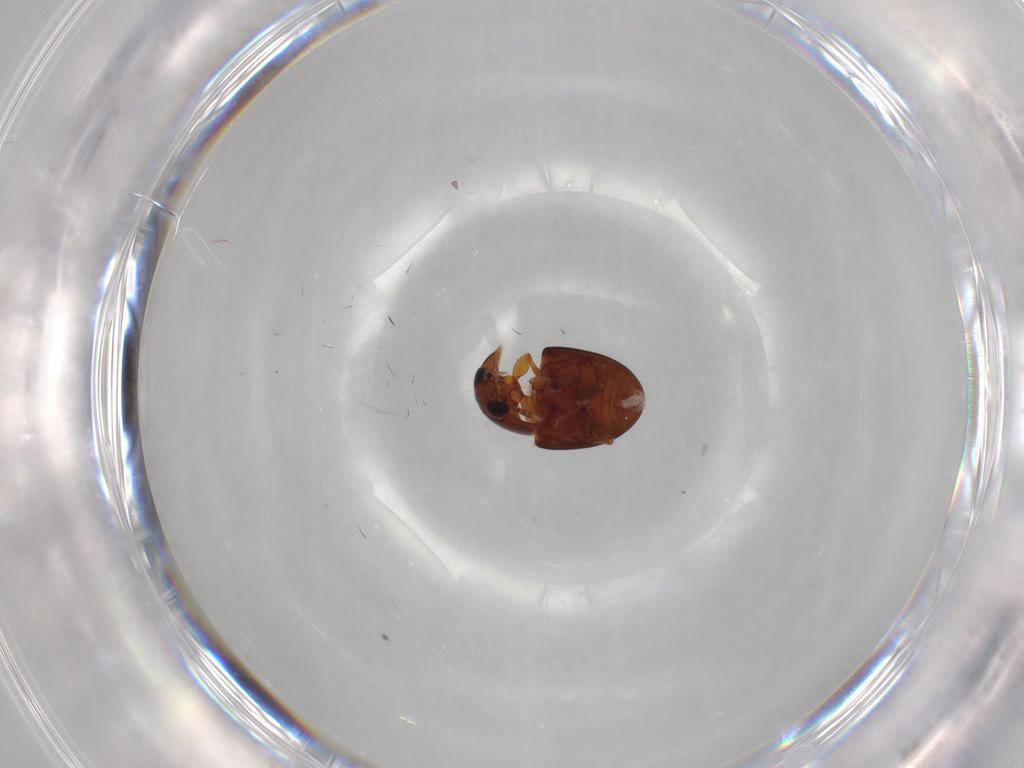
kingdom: Animalia
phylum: Arthropoda
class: Insecta
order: Coleoptera
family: Phalacridae
